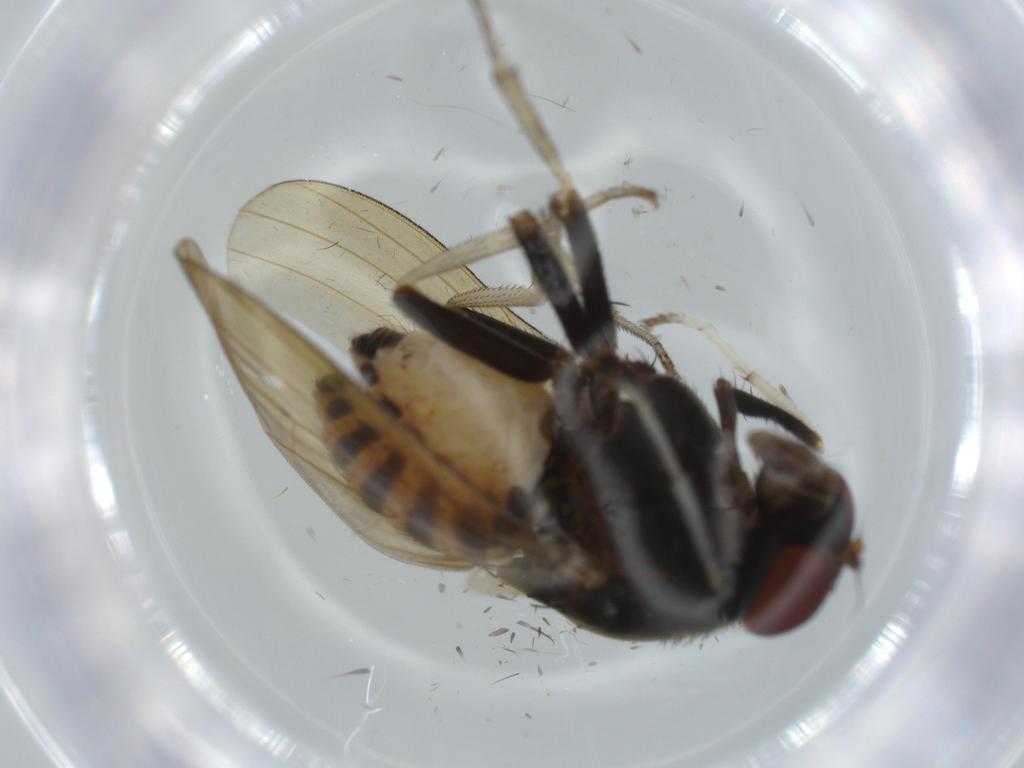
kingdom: Animalia
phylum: Arthropoda
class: Insecta
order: Diptera
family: Sciaridae
